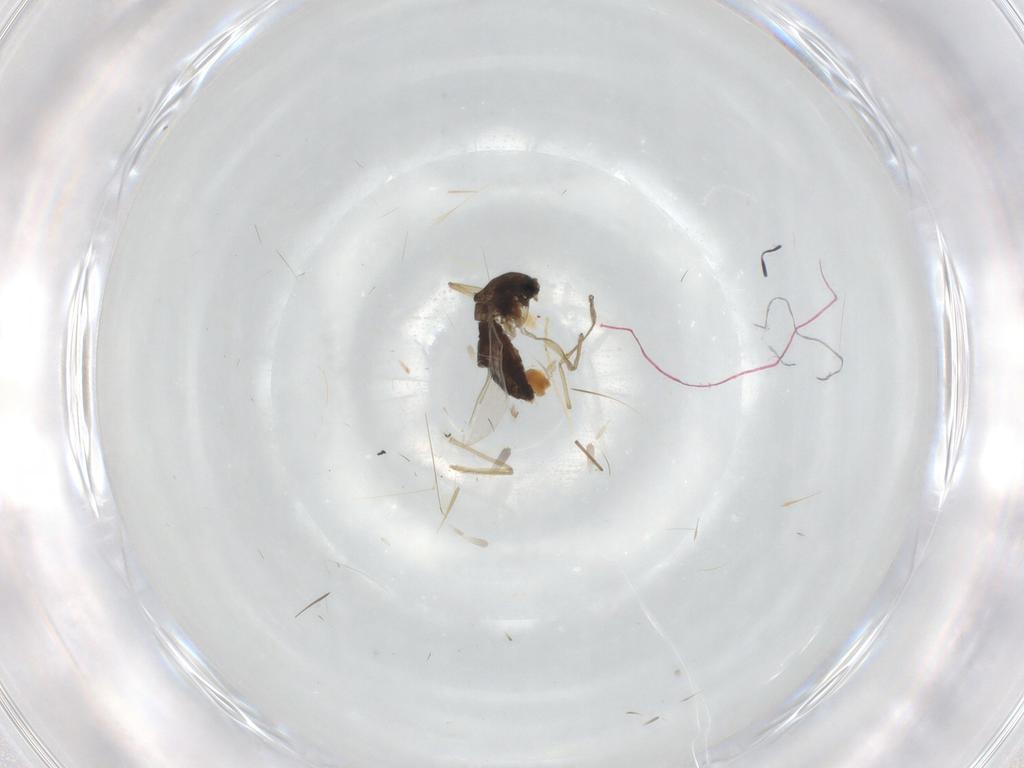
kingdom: Animalia
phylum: Arthropoda
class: Insecta
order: Diptera
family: Chironomidae
